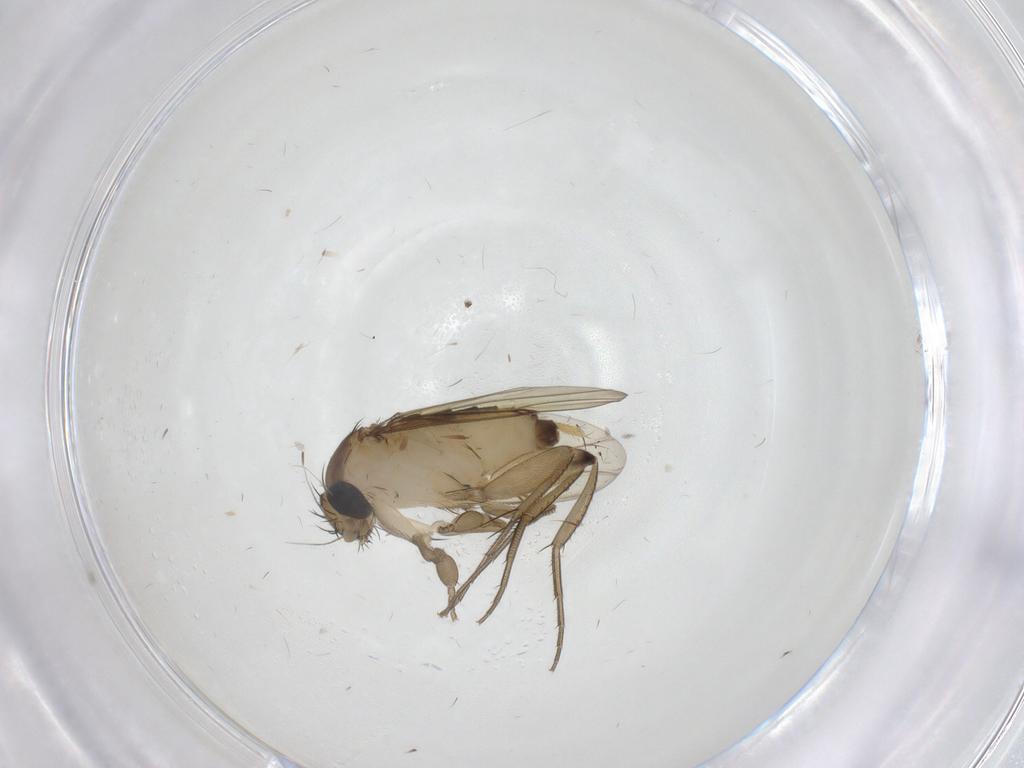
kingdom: Animalia
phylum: Arthropoda
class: Insecta
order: Diptera
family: Phoridae
